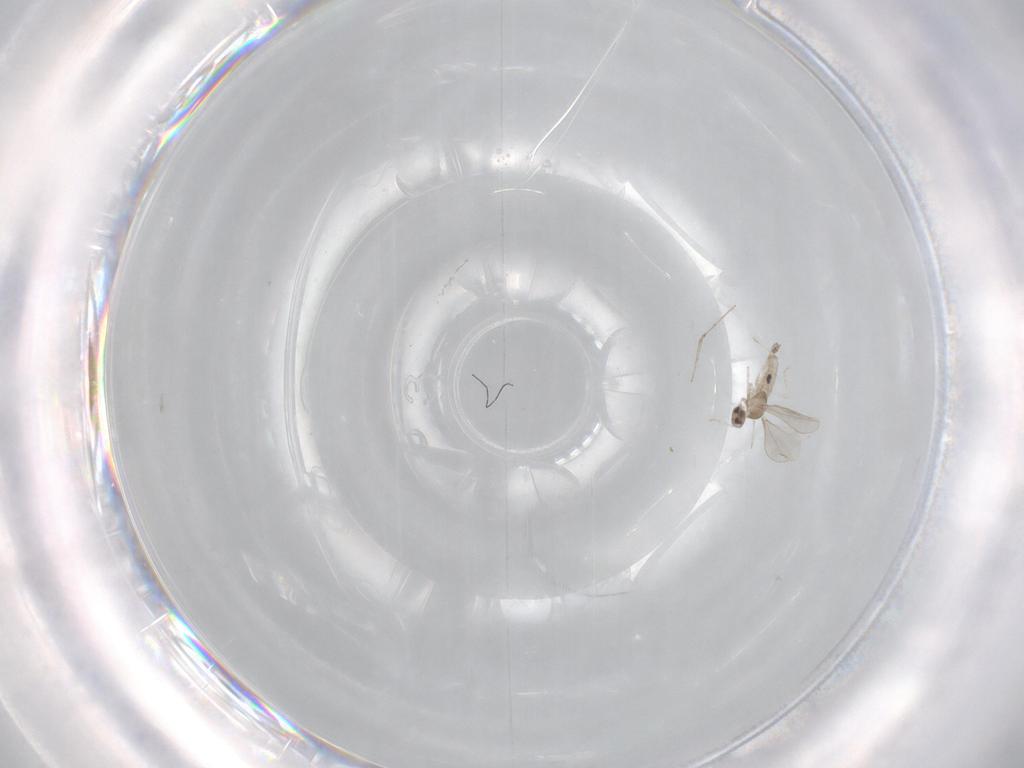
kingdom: Animalia
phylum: Arthropoda
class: Insecta
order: Diptera
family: Cecidomyiidae
